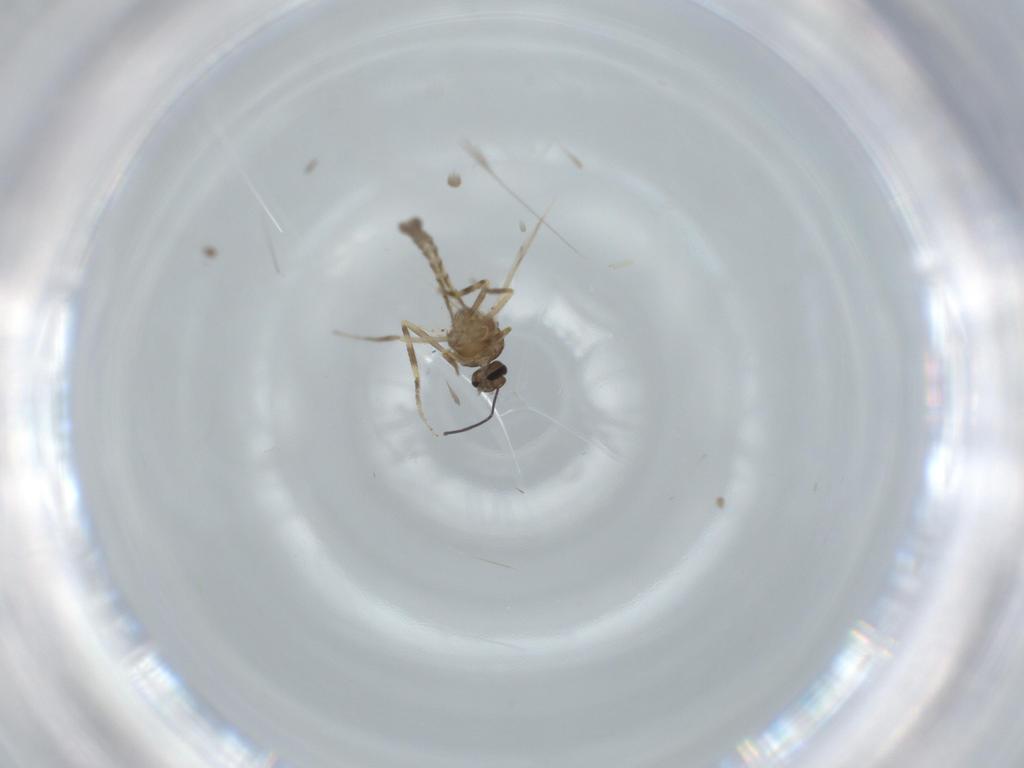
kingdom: Animalia
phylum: Arthropoda
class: Insecta
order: Diptera
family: Ceratopogonidae
